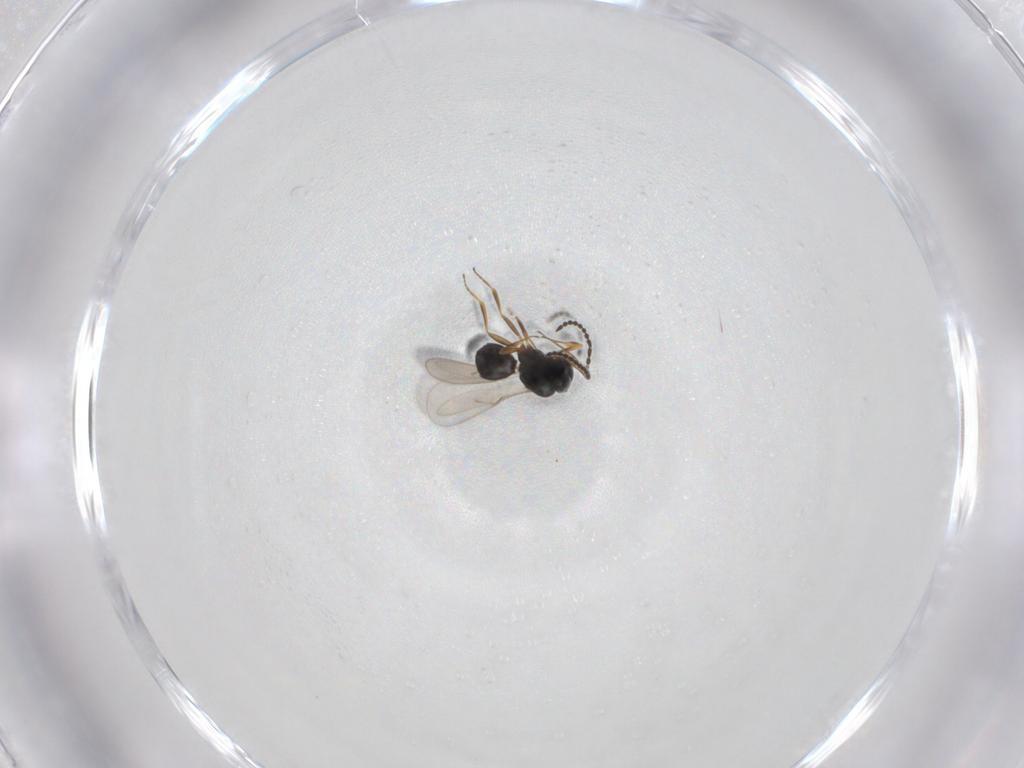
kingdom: Animalia
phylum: Arthropoda
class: Insecta
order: Hymenoptera
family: Scelionidae
